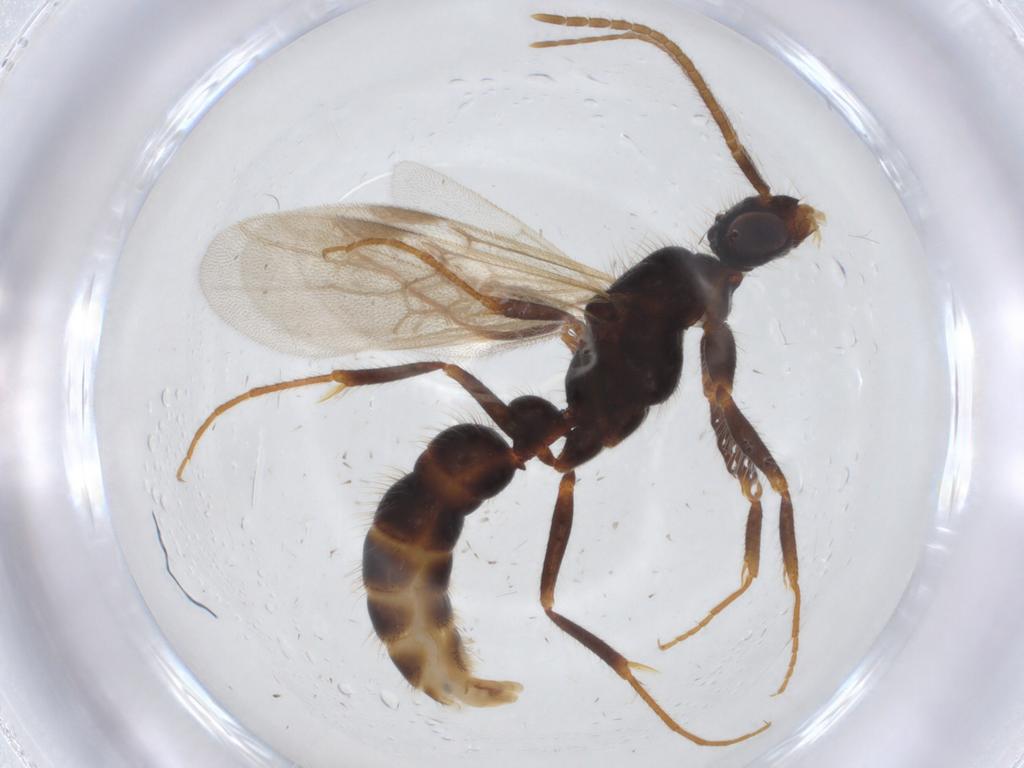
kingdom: Animalia
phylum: Arthropoda
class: Insecta
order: Hymenoptera
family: Formicidae
